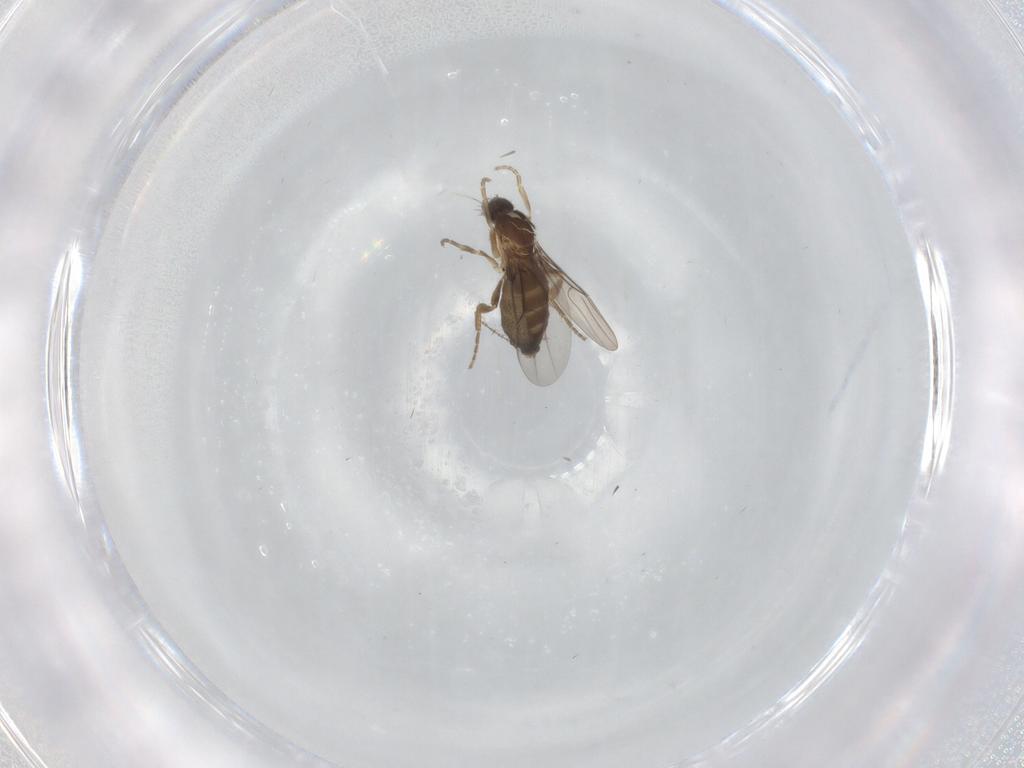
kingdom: Animalia
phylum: Arthropoda
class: Insecta
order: Diptera
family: Phoridae
